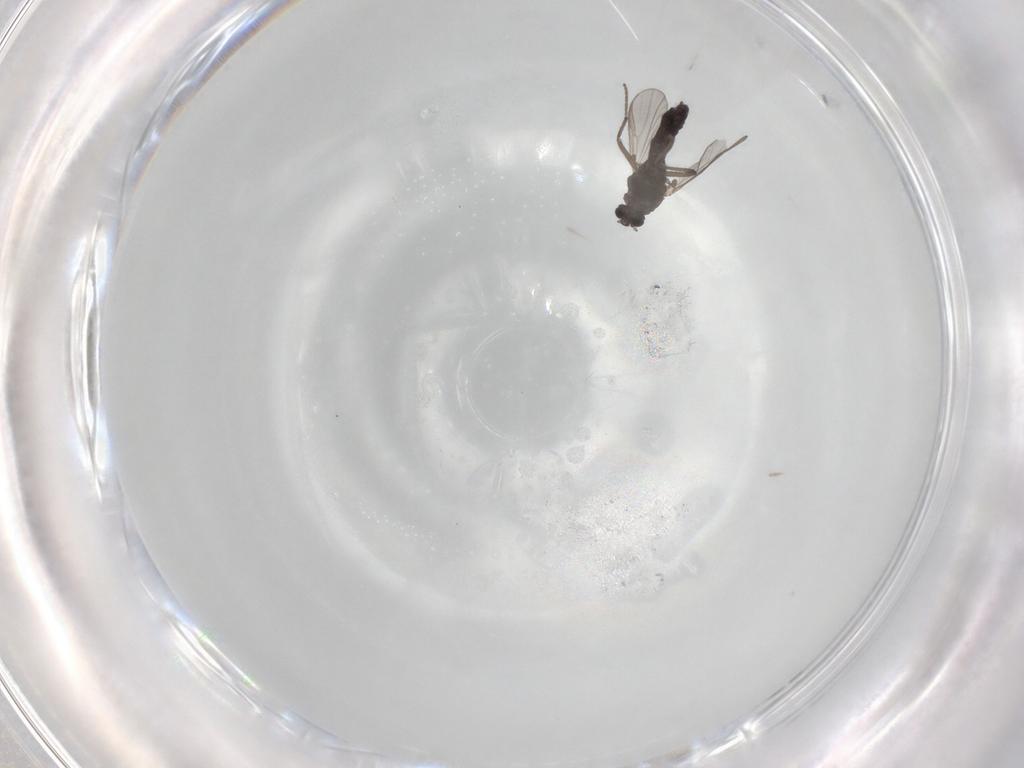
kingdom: Animalia
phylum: Arthropoda
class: Insecta
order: Diptera
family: Chironomidae
